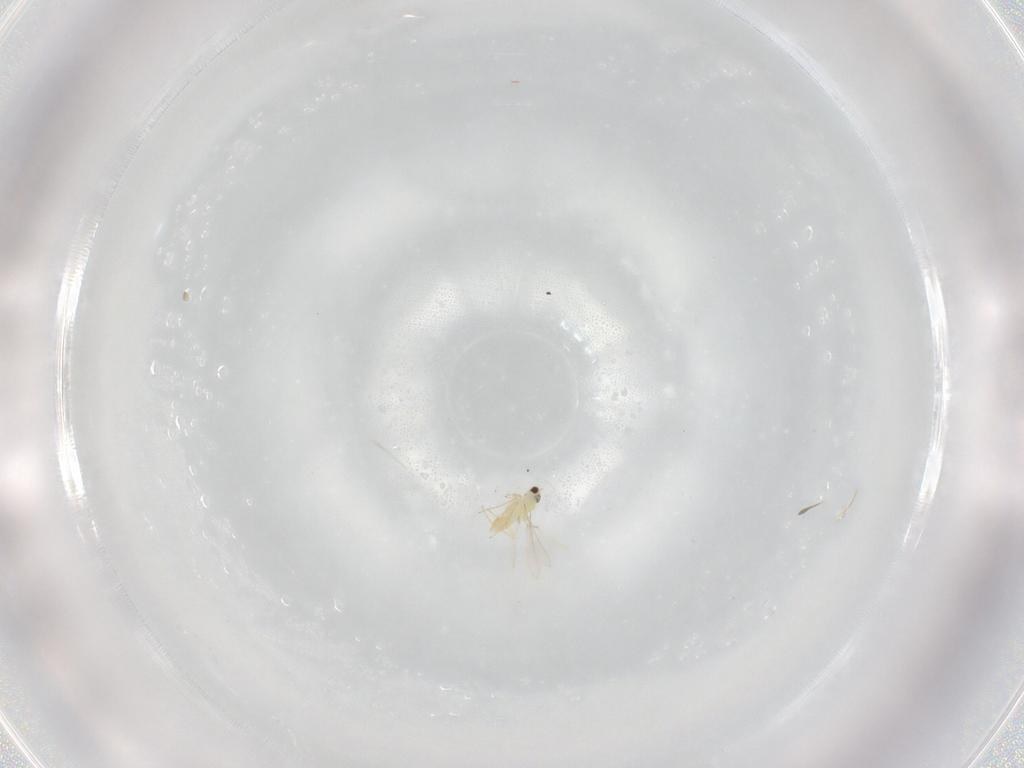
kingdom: Animalia
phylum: Arthropoda
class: Insecta
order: Hymenoptera
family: Mymaridae
